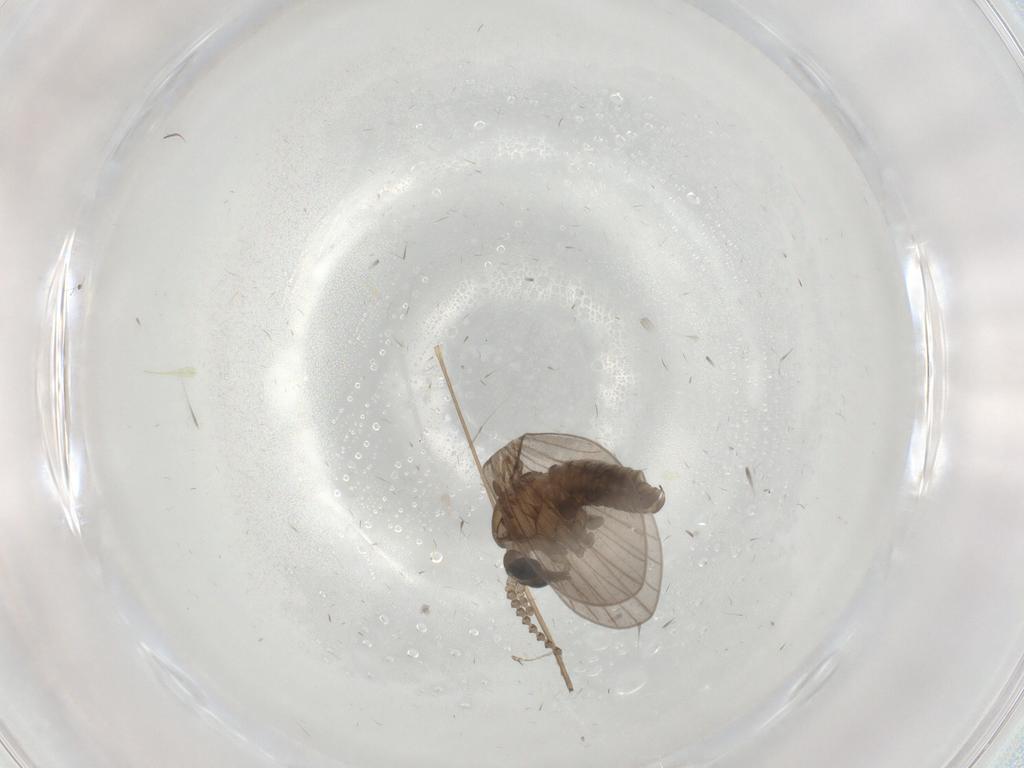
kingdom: Animalia
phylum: Arthropoda
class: Insecta
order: Diptera
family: Psychodidae
